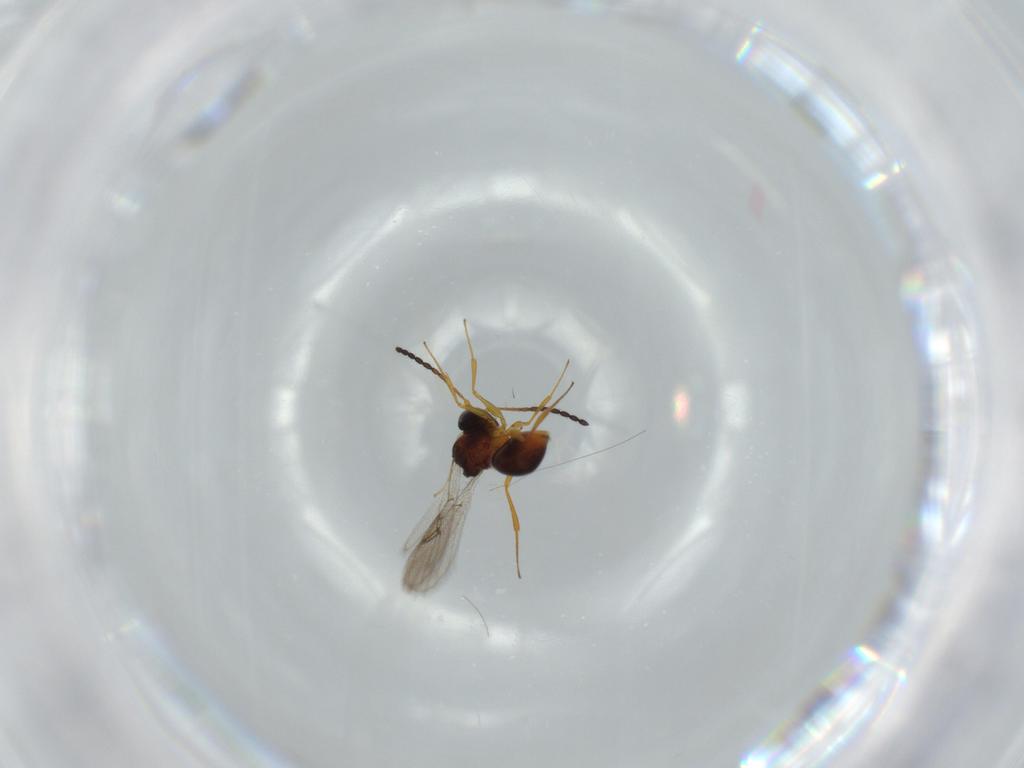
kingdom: Animalia
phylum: Arthropoda
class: Insecta
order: Hymenoptera
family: Figitidae
